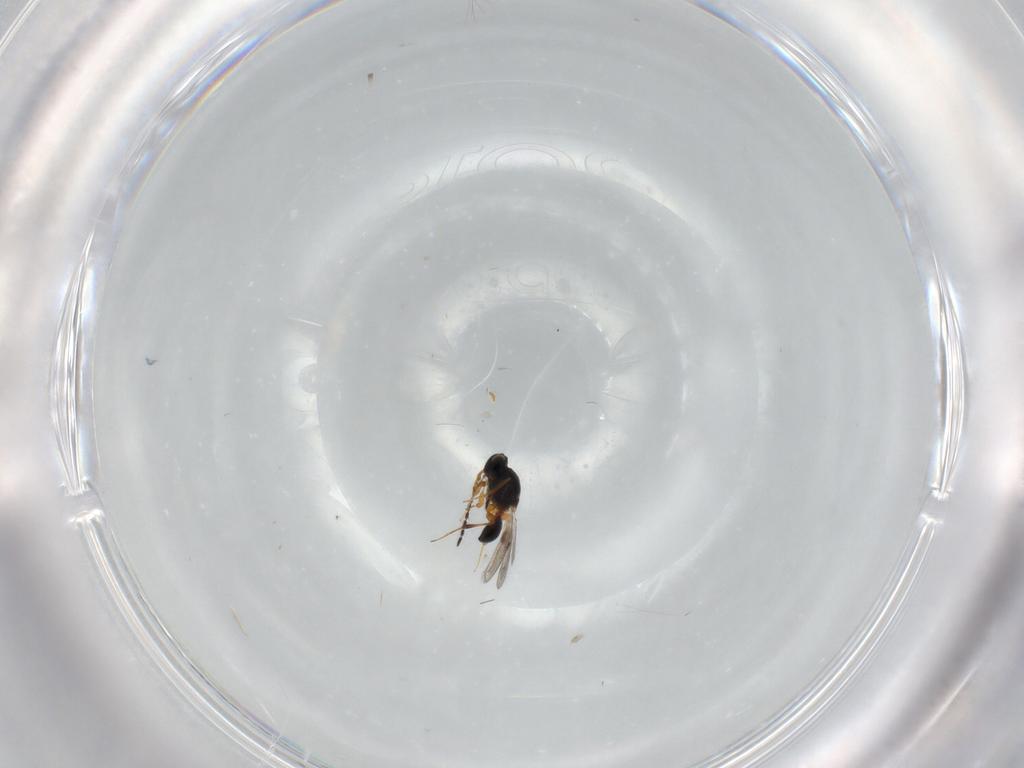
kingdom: Animalia
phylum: Arthropoda
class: Insecta
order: Hymenoptera
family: Platygastridae
